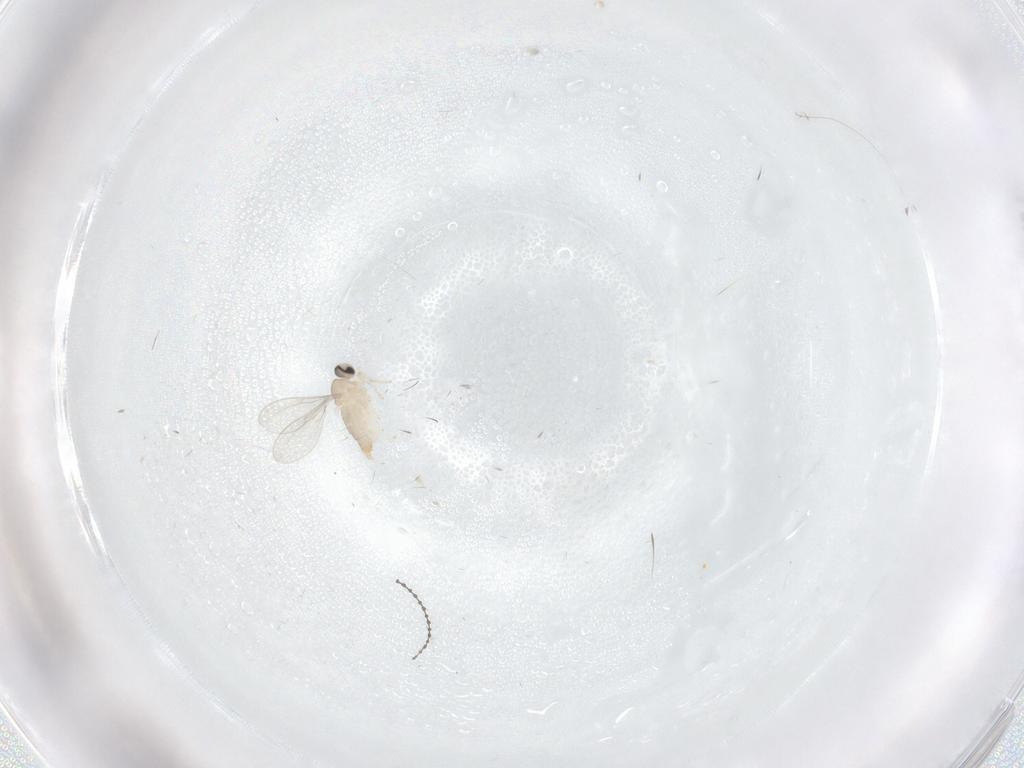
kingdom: Animalia
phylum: Arthropoda
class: Insecta
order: Diptera
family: Cecidomyiidae
